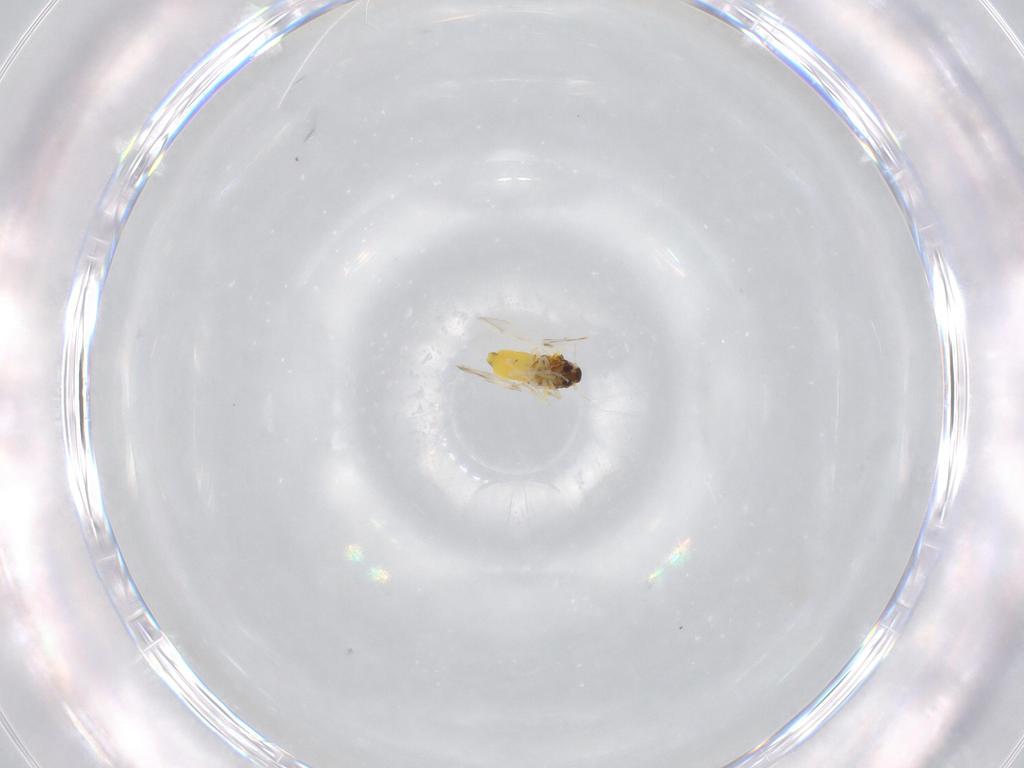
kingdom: Animalia
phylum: Arthropoda
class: Insecta
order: Hemiptera
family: Aleyrodidae
